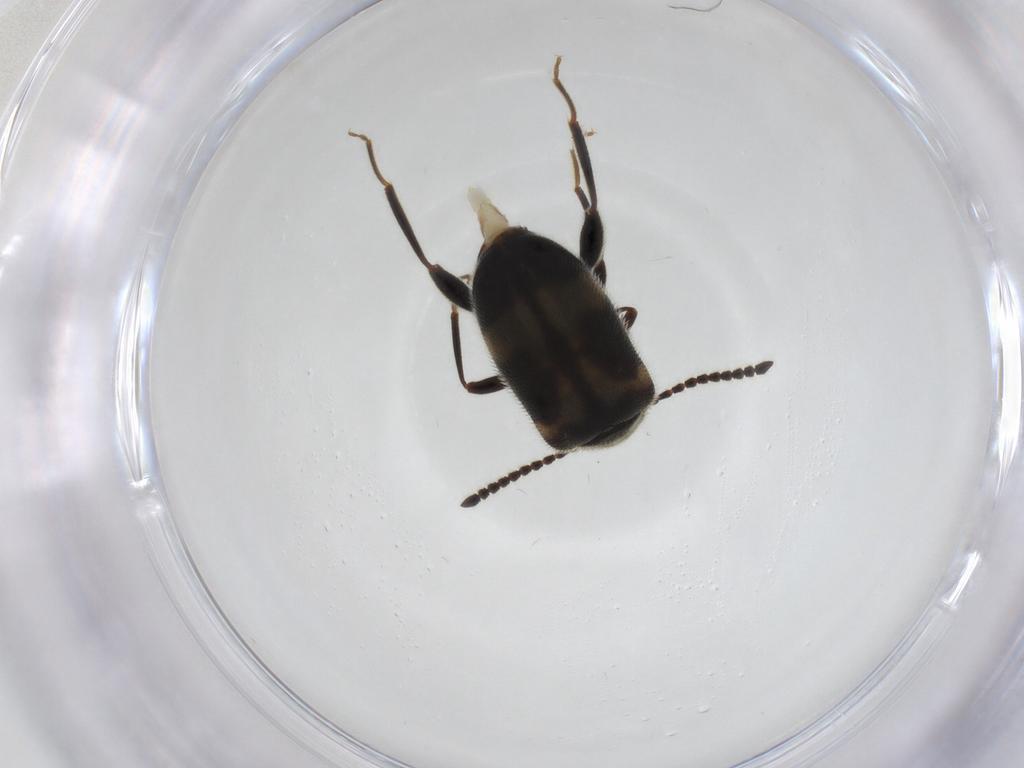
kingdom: Animalia
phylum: Arthropoda
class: Insecta
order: Coleoptera
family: Aderidae
